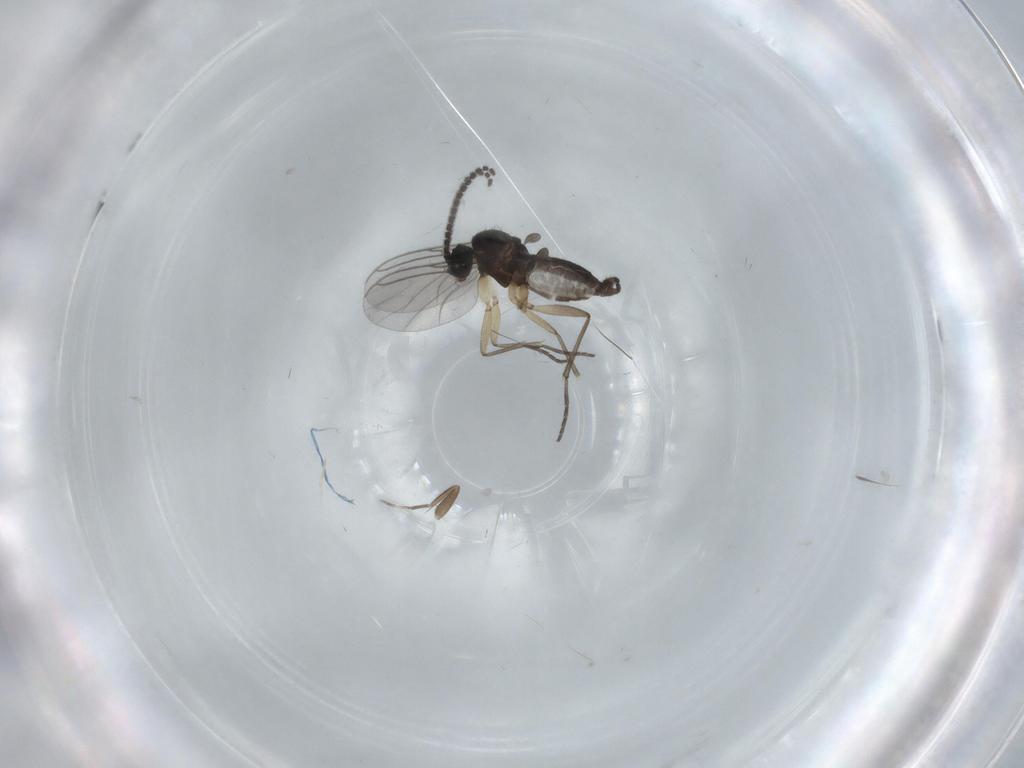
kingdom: Animalia
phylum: Arthropoda
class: Insecta
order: Diptera
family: Sciaridae
